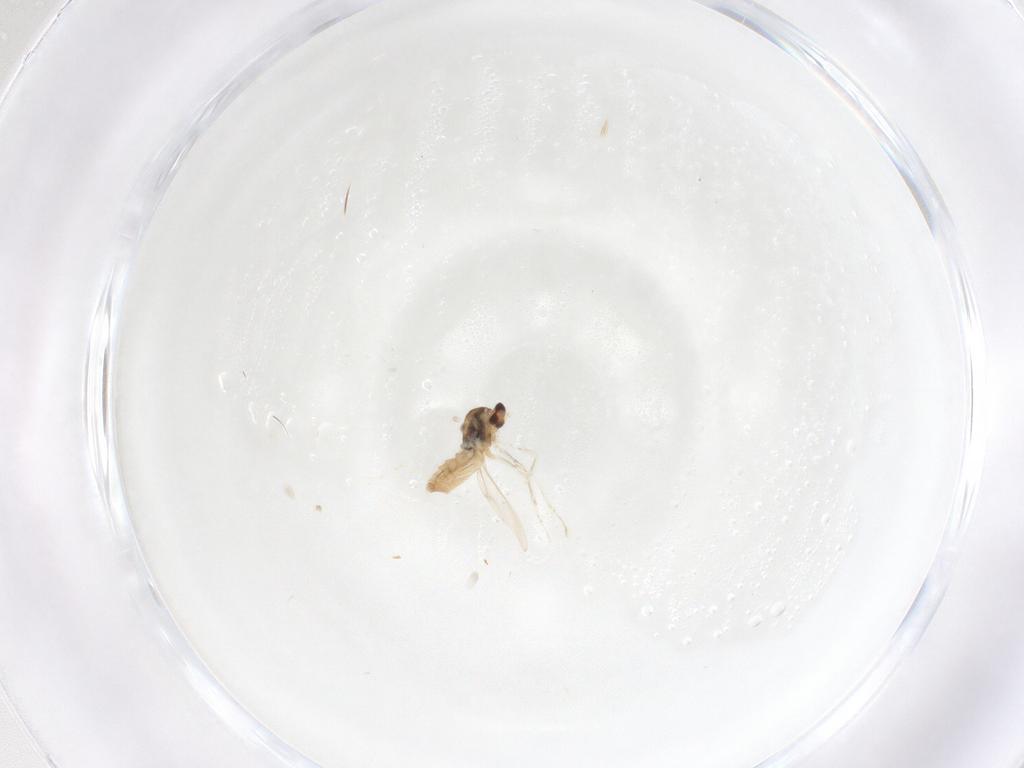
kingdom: Animalia
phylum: Arthropoda
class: Insecta
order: Diptera
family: Cecidomyiidae
